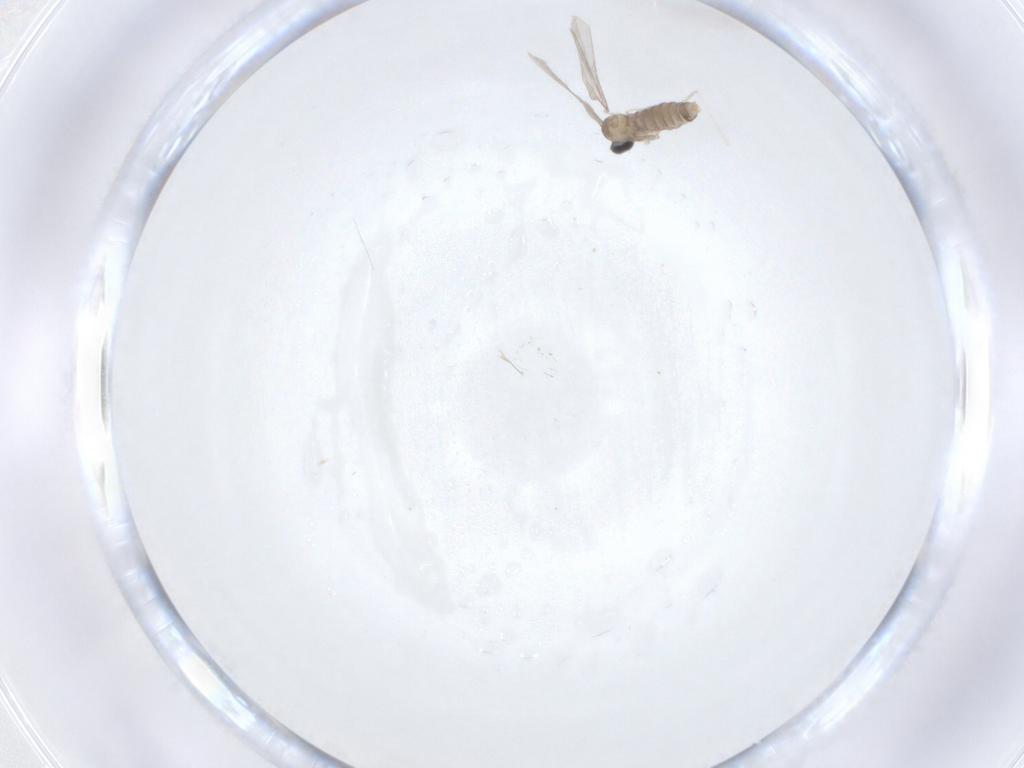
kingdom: Animalia
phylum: Arthropoda
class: Insecta
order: Diptera
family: Cecidomyiidae
